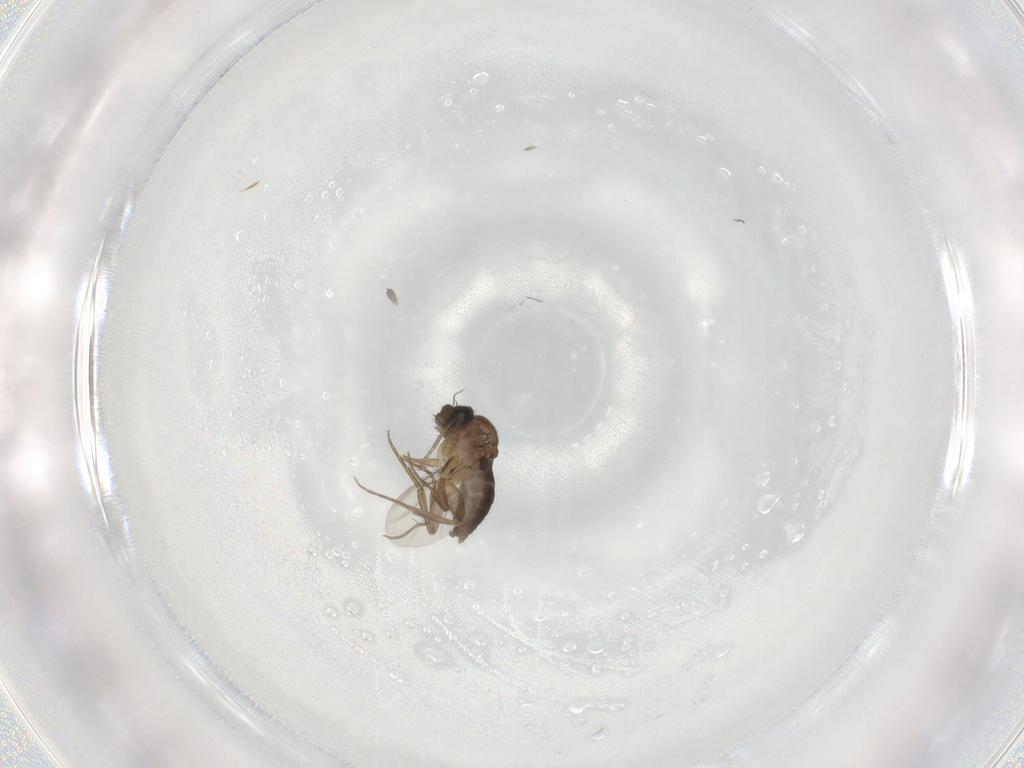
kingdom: Animalia
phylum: Arthropoda
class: Insecta
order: Diptera
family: Phoridae
